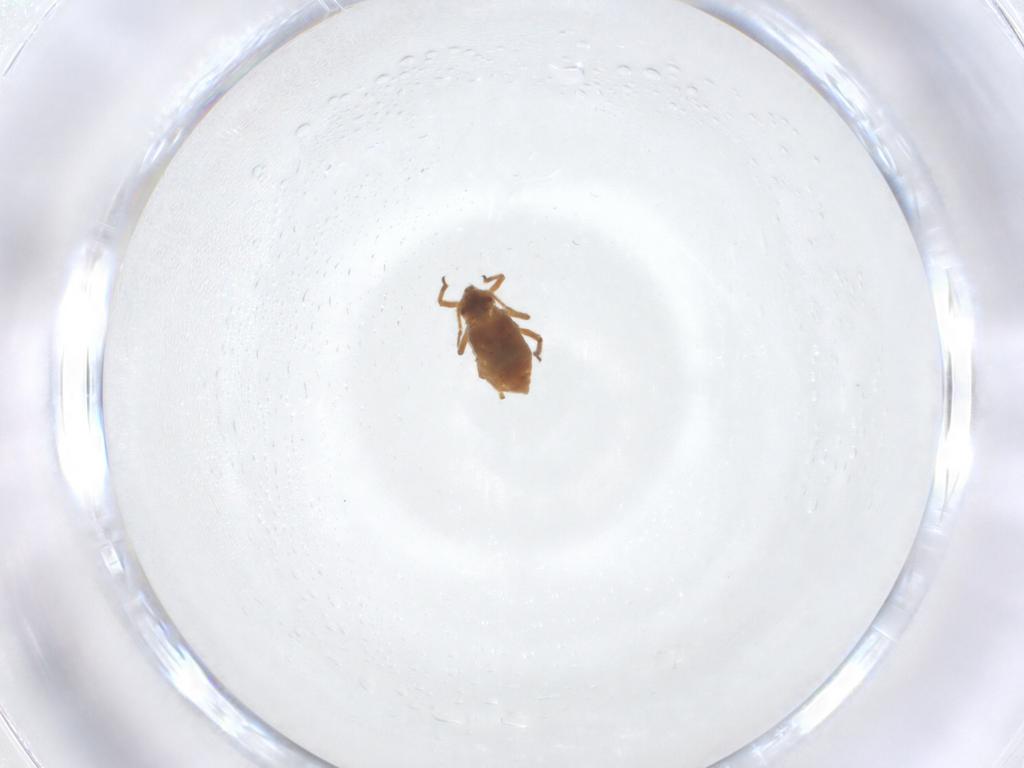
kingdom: Animalia
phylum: Arthropoda
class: Insecta
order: Hemiptera
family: Aphididae
